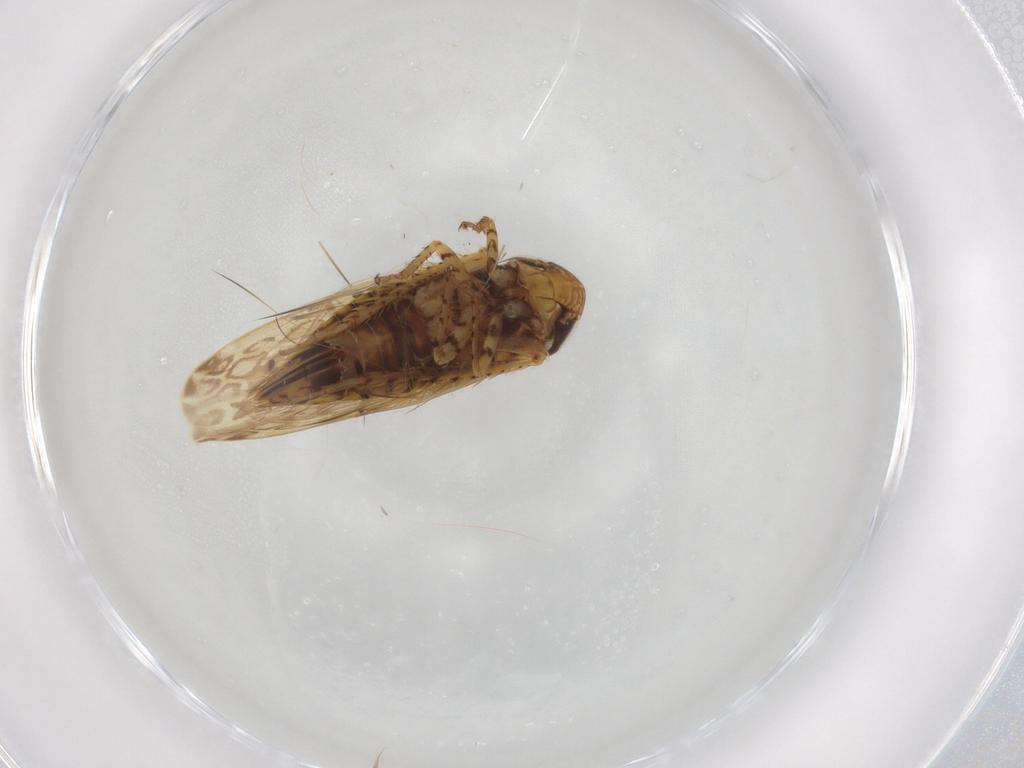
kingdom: Animalia
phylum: Arthropoda
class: Insecta
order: Hemiptera
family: Cicadellidae
